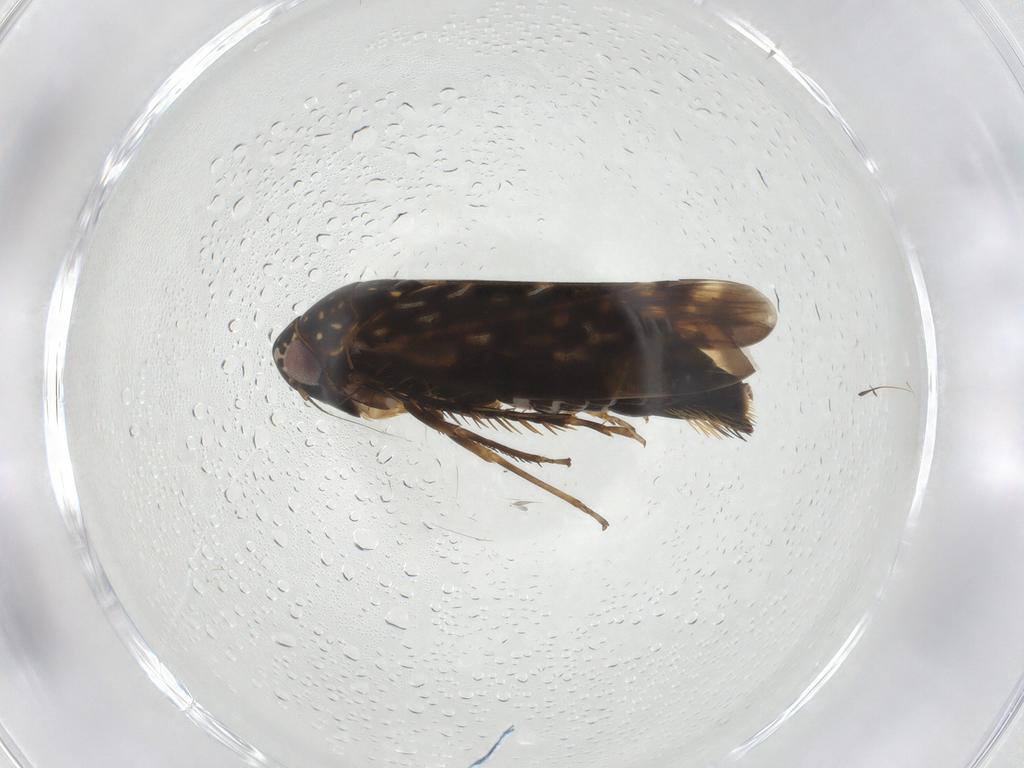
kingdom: Animalia
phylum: Arthropoda
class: Insecta
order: Hemiptera
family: Cicadellidae
